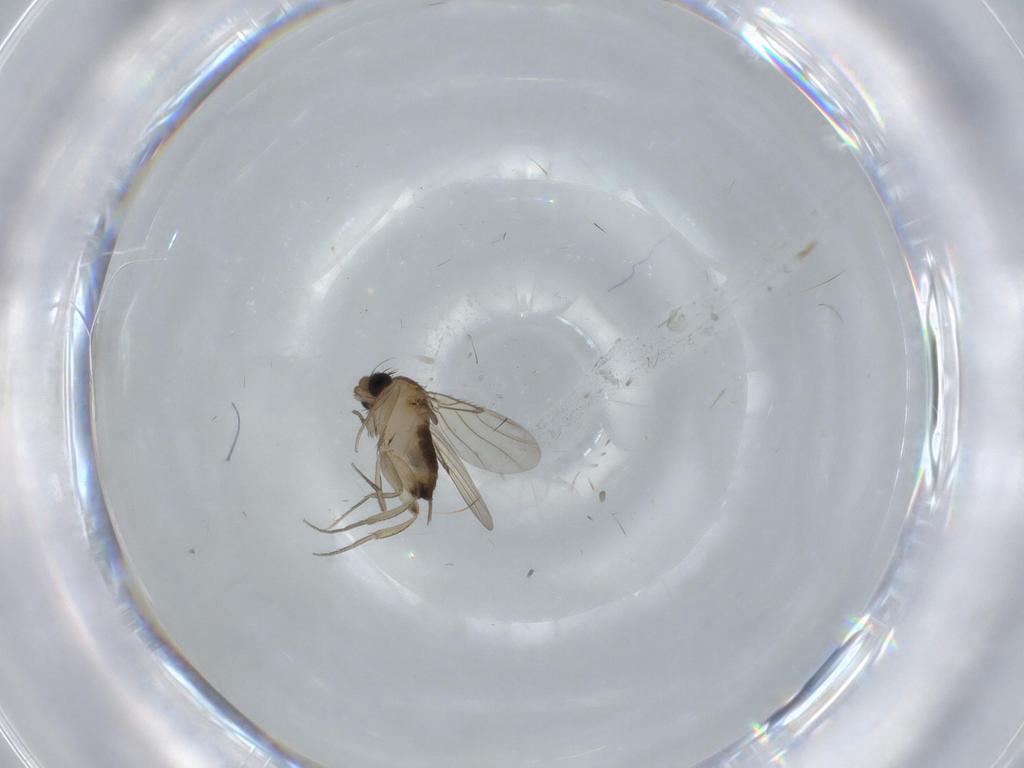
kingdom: Animalia
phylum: Arthropoda
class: Insecta
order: Diptera
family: Phoridae
